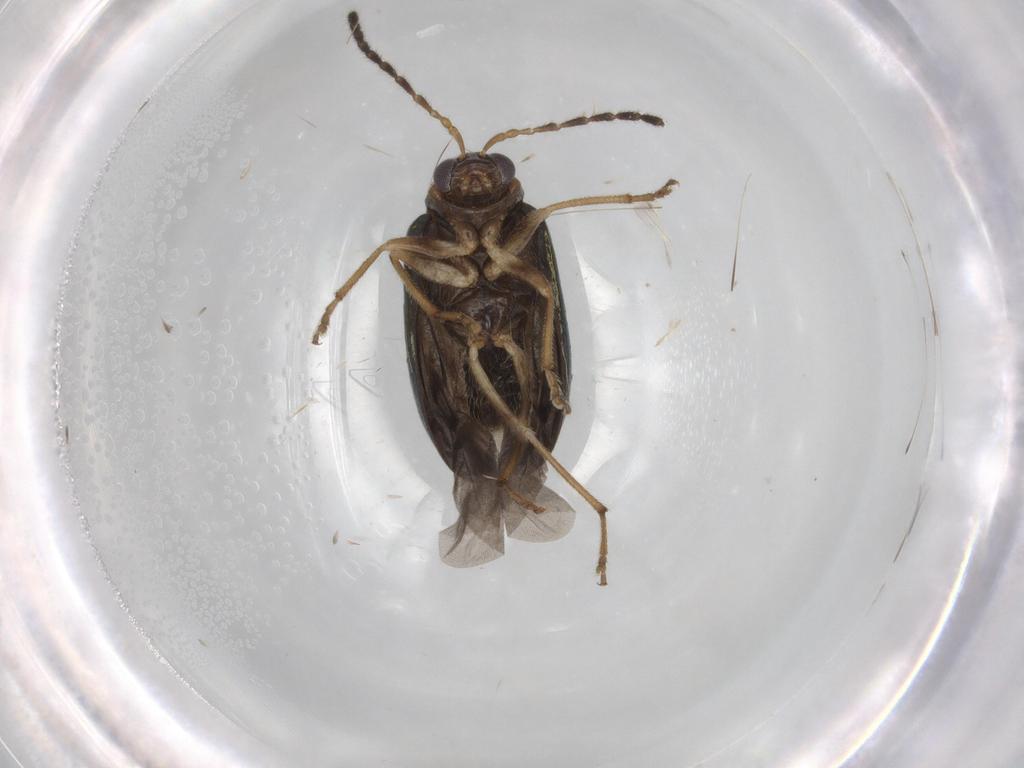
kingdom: Animalia
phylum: Arthropoda
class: Insecta
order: Coleoptera
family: Chrysomelidae
